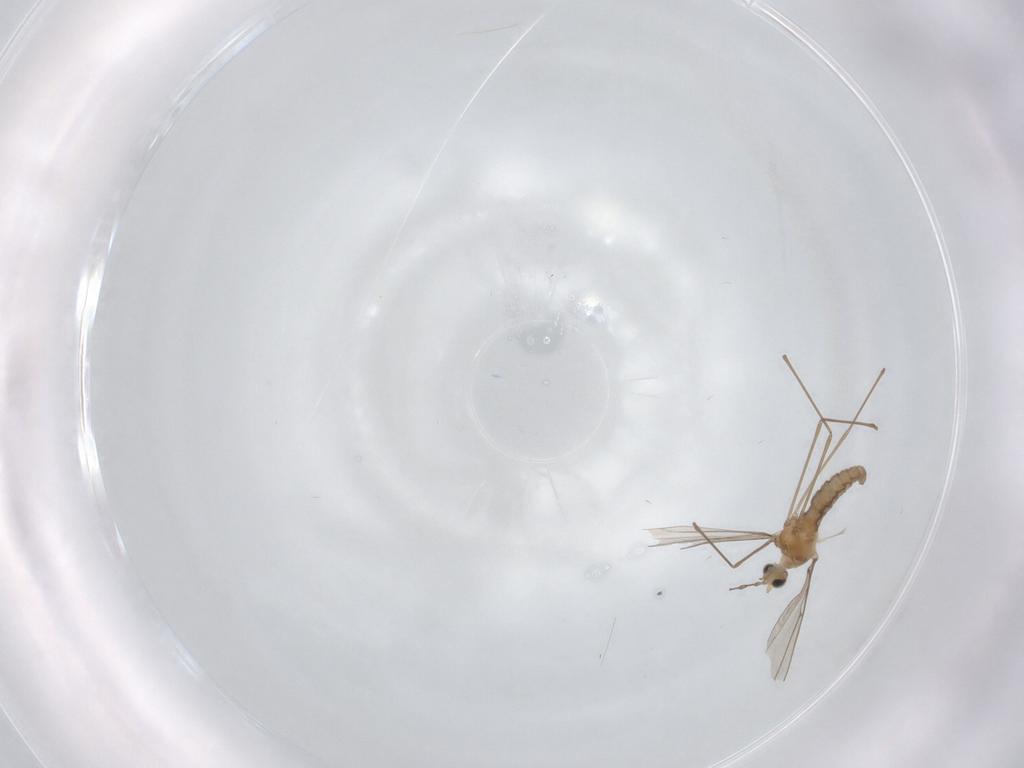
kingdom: Animalia
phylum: Arthropoda
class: Insecta
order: Diptera
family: Cecidomyiidae
